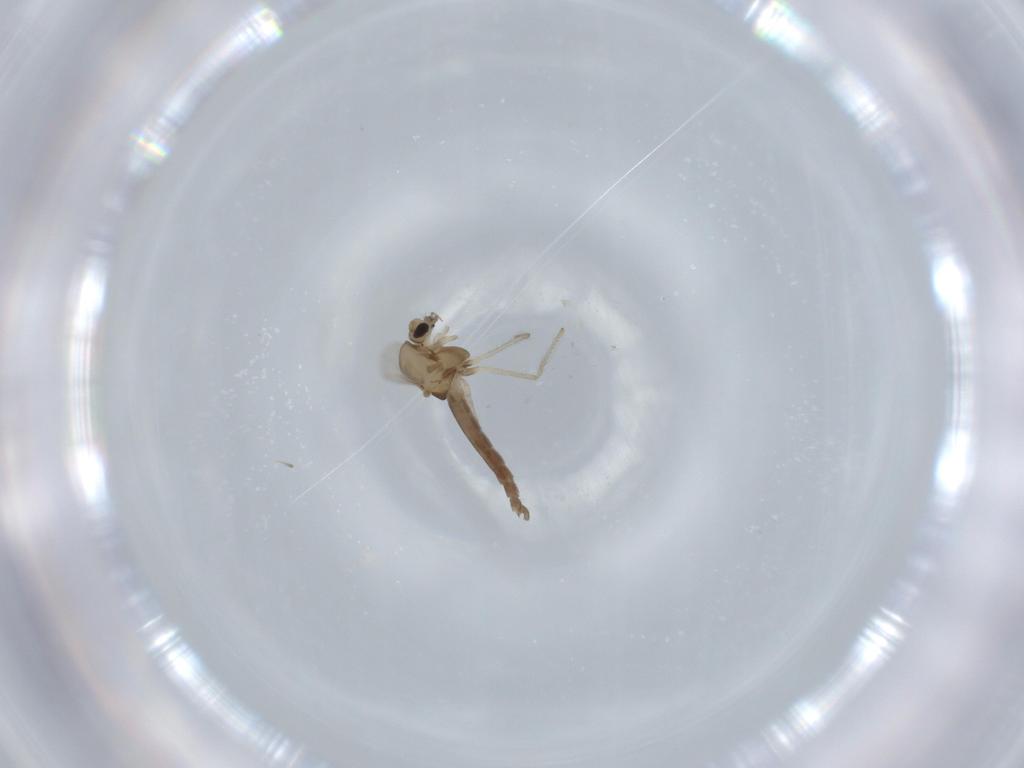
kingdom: Animalia
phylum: Arthropoda
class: Insecta
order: Diptera
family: Chironomidae
